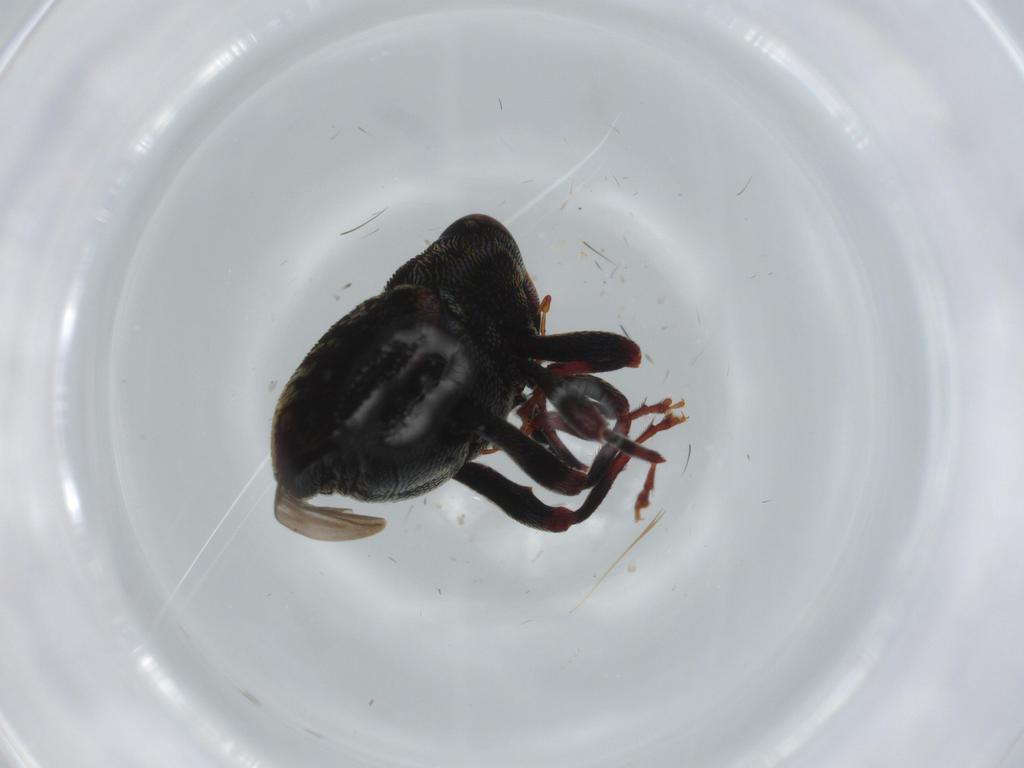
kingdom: Animalia
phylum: Arthropoda
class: Insecta
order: Coleoptera
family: Curculionidae
